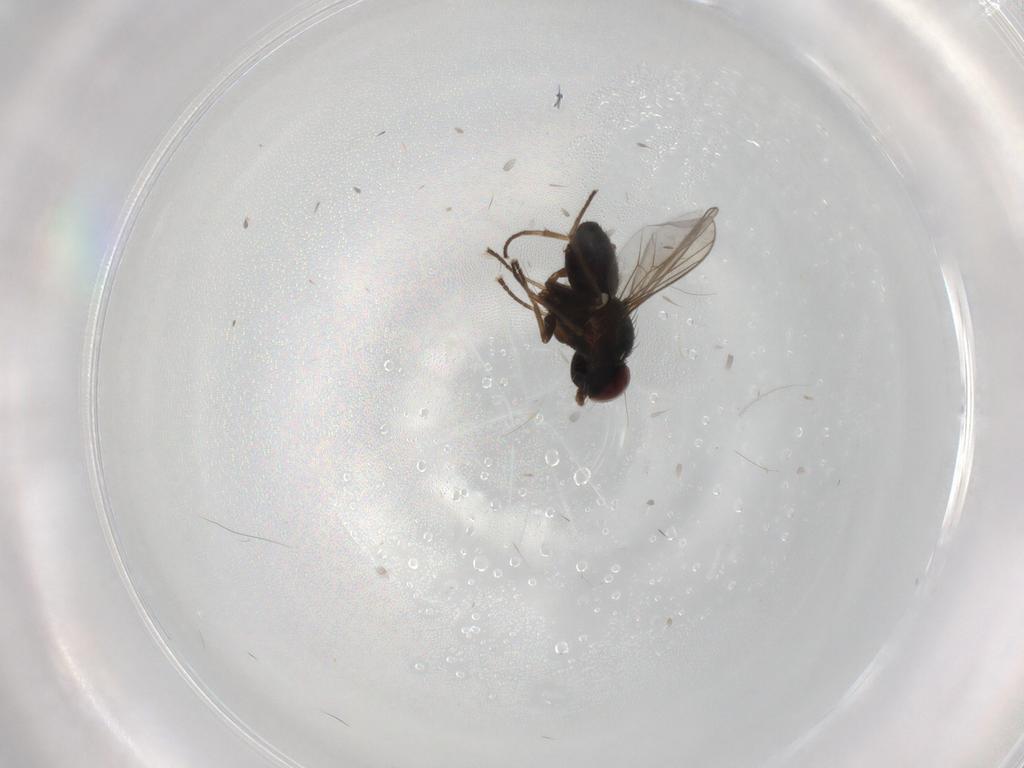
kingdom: Animalia
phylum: Arthropoda
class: Insecta
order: Diptera
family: Dolichopodidae
